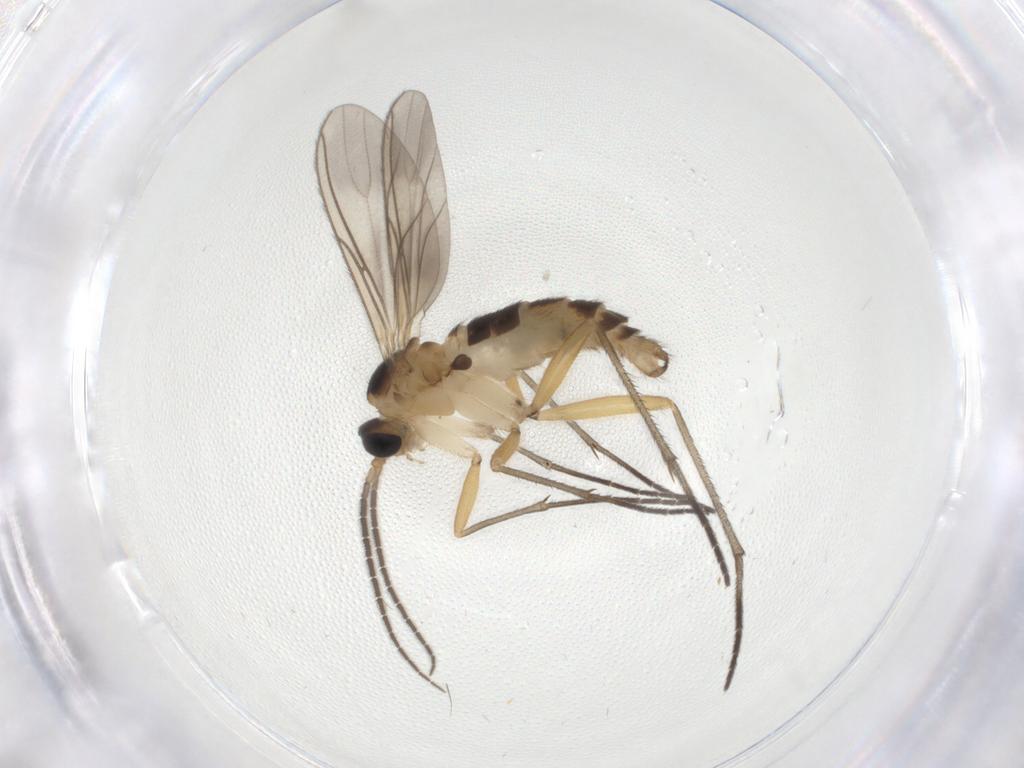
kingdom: Animalia
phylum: Arthropoda
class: Insecta
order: Diptera
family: Sciaridae
